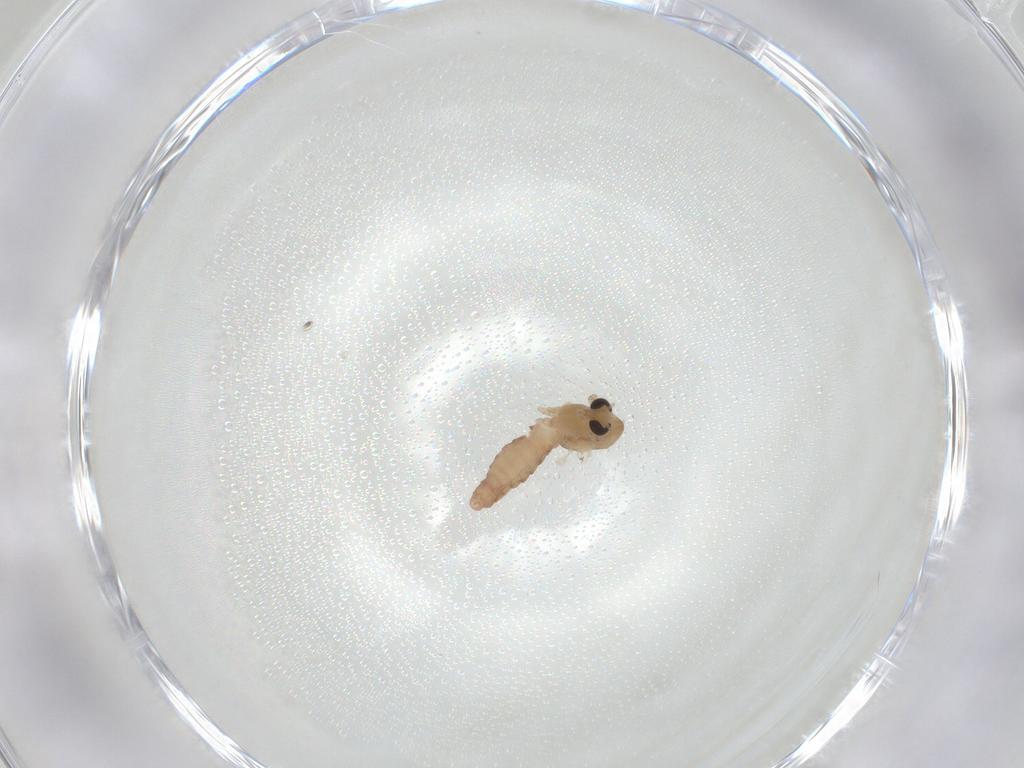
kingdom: Animalia
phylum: Arthropoda
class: Insecta
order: Diptera
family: Chironomidae
